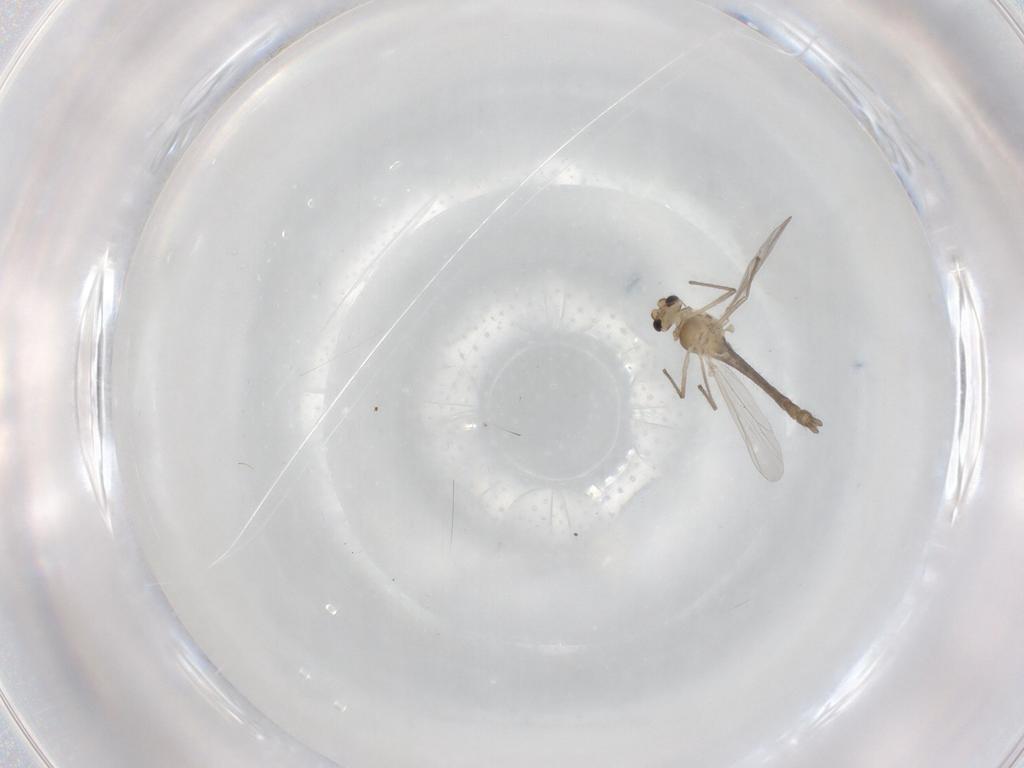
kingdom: Animalia
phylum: Arthropoda
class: Insecta
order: Diptera
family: Chironomidae
